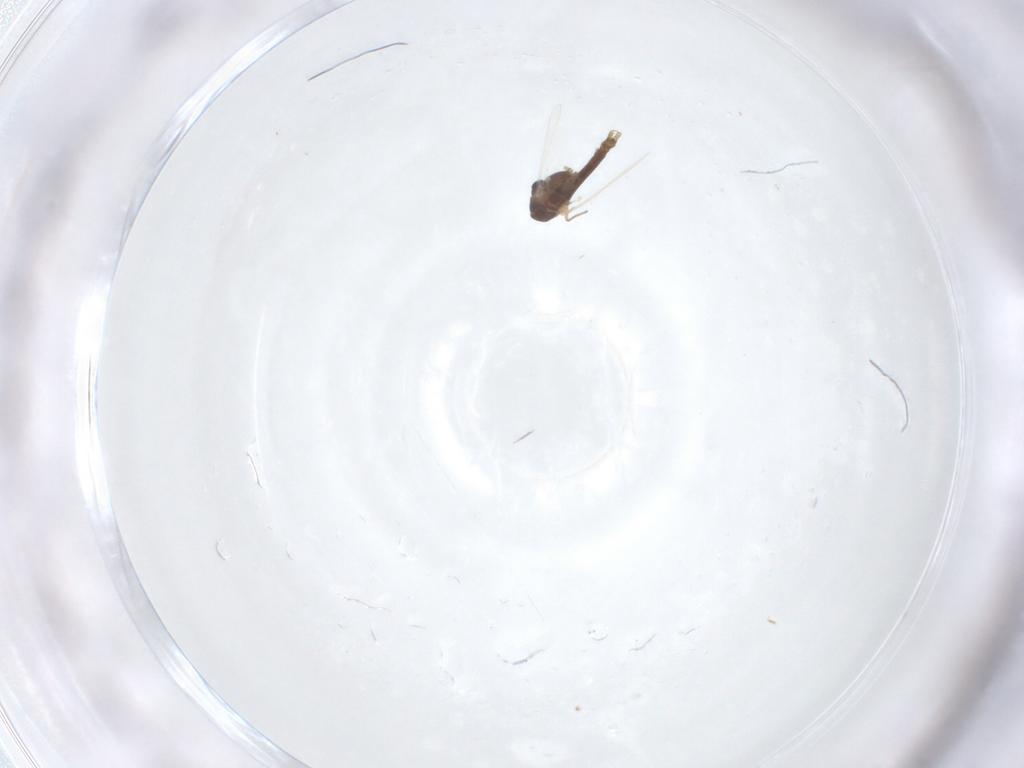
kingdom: Animalia
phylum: Arthropoda
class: Insecta
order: Diptera
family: Chironomidae
